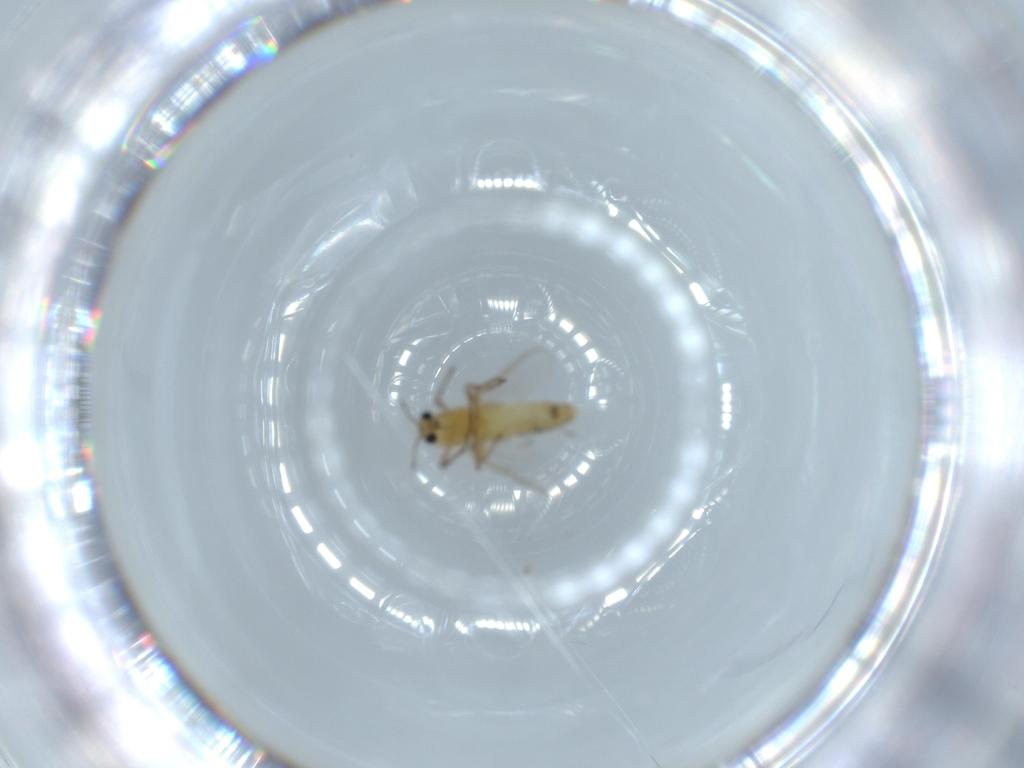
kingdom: Animalia
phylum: Arthropoda
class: Insecta
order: Diptera
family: Chironomidae
